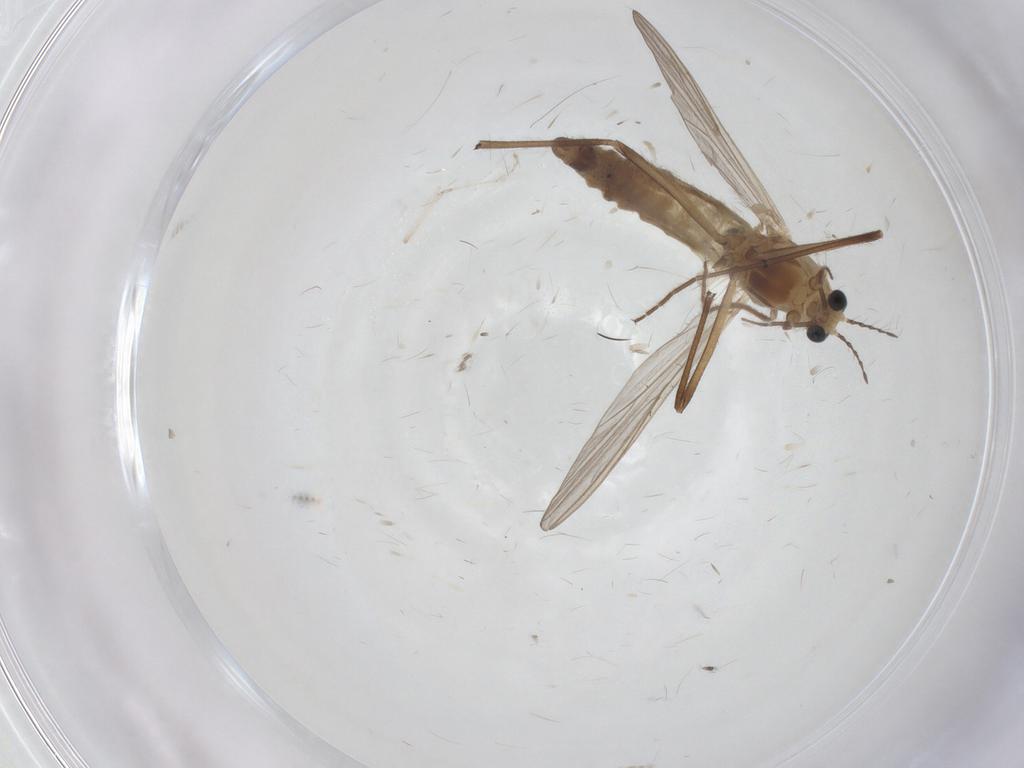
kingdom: Animalia
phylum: Arthropoda
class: Insecta
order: Diptera
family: Chironomidae
